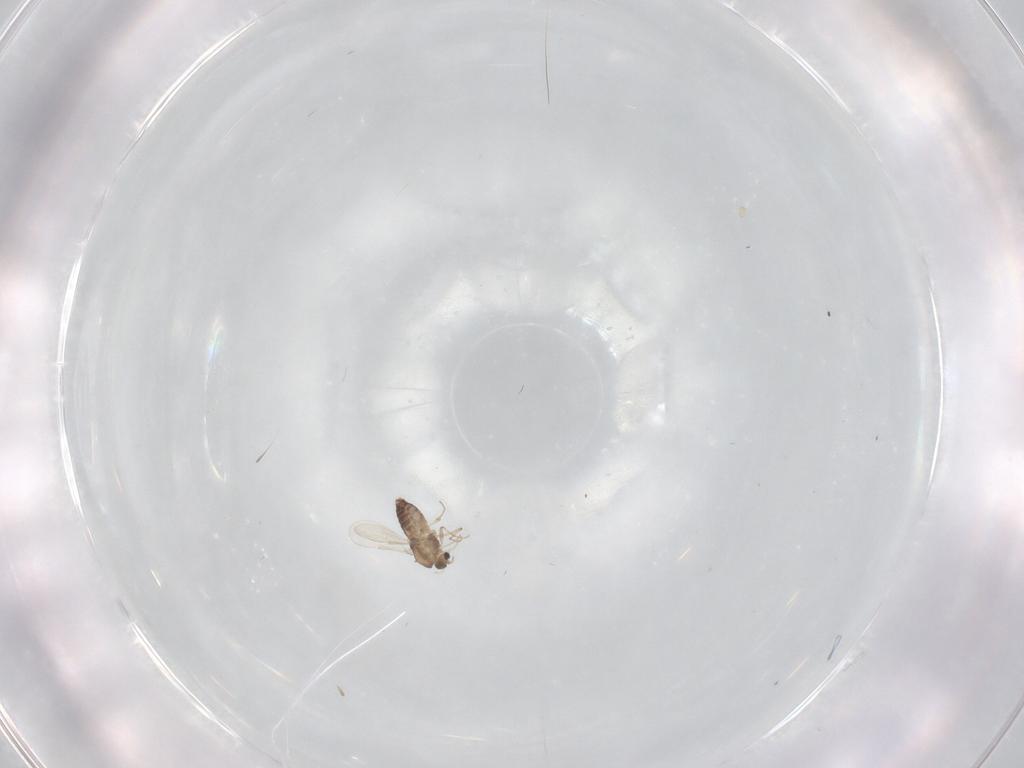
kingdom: Animalia
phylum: Arthropoda
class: Insecta
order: Diptera
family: Chironomidae
